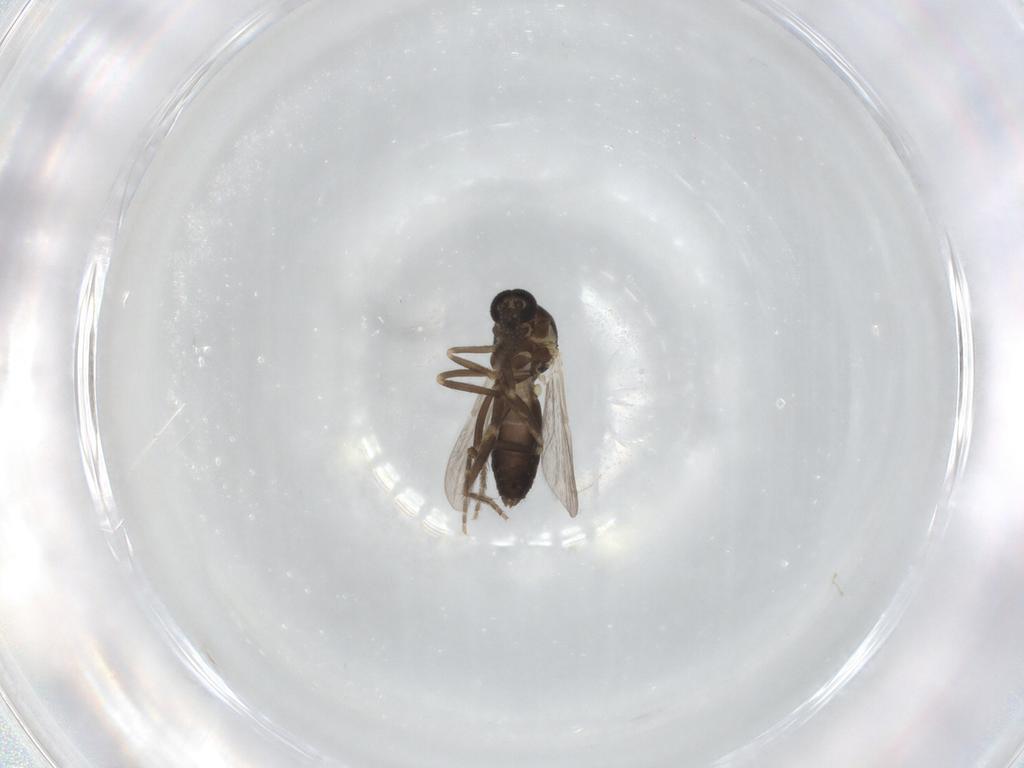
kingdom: Animalia
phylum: Arthropoda
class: Insecta
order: Diptera
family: Ceratopogonidae
